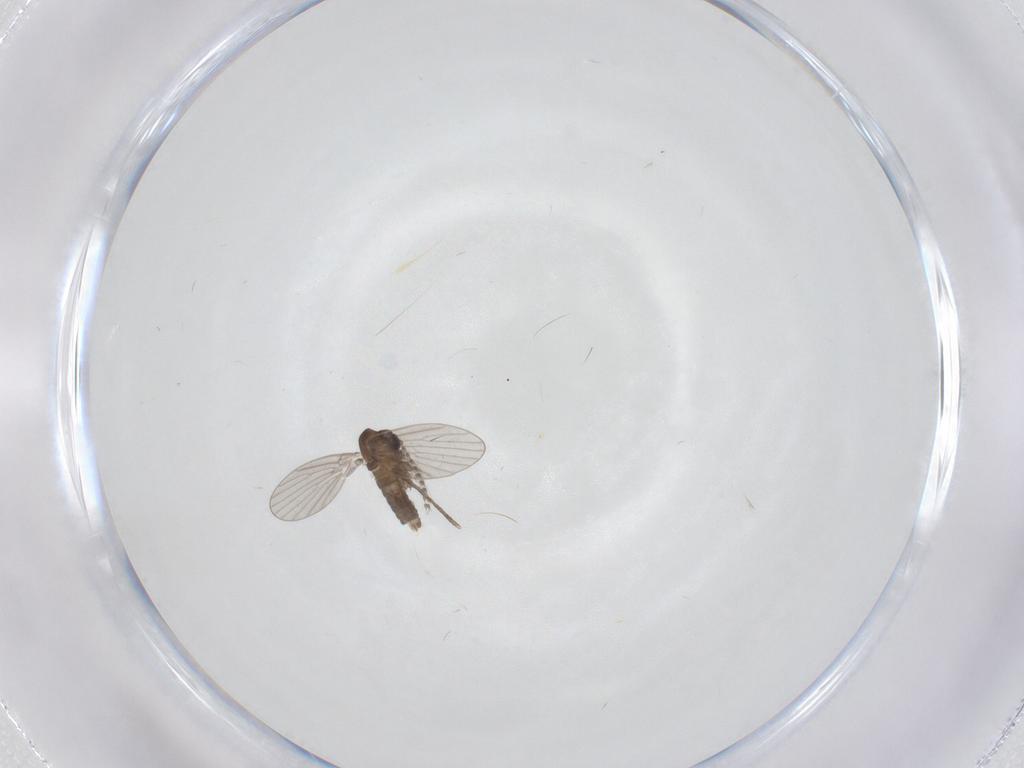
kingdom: Animalia
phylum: Arthropoda
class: Insecta
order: Diptera
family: Psychodidae
